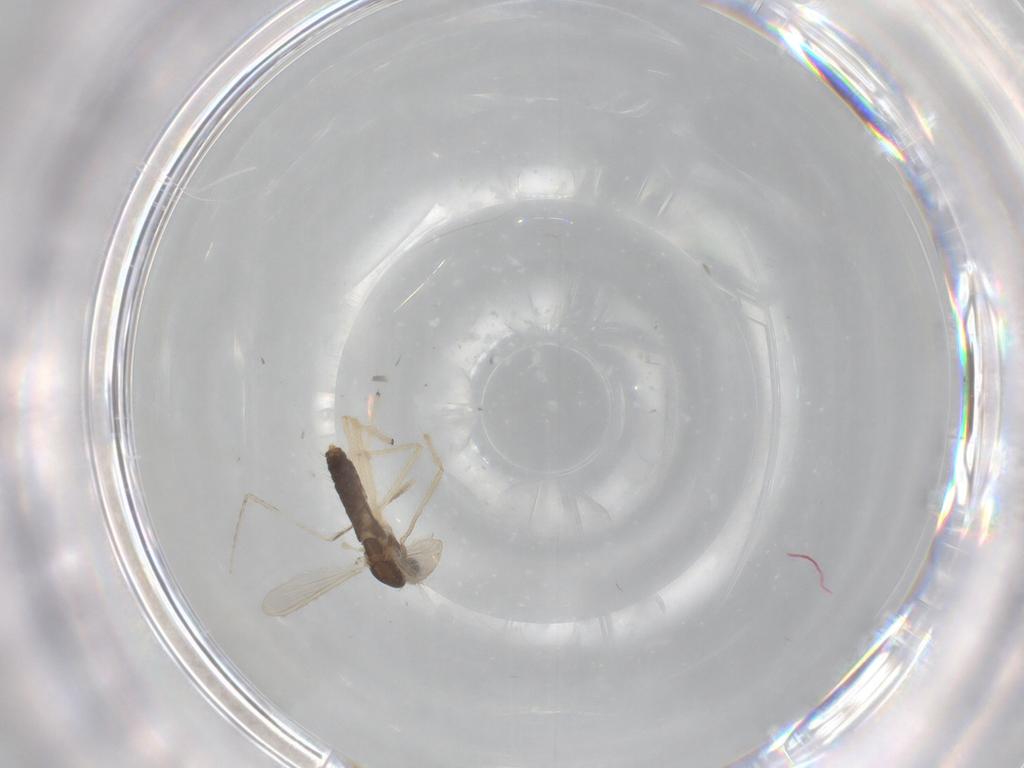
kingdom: Animalia
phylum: Arthropoda
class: Insecta
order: Diptera
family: Chironomidae
